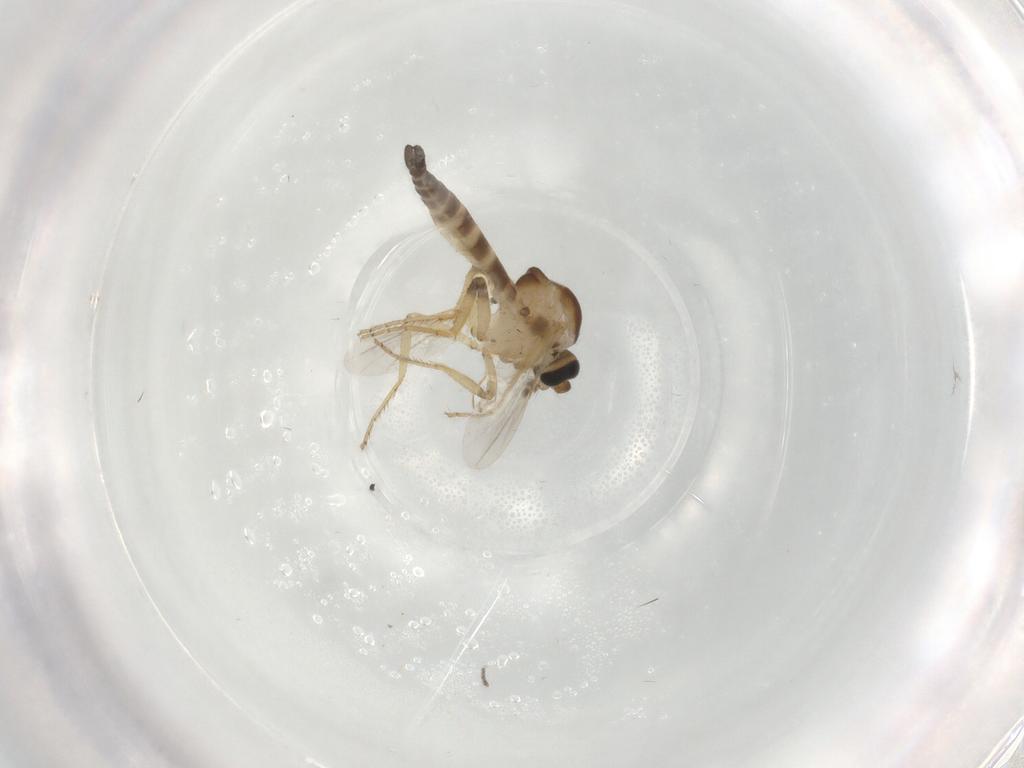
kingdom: Animalia
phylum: Arthropoda
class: Insecta
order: Diptera
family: Ceratopogonidae
